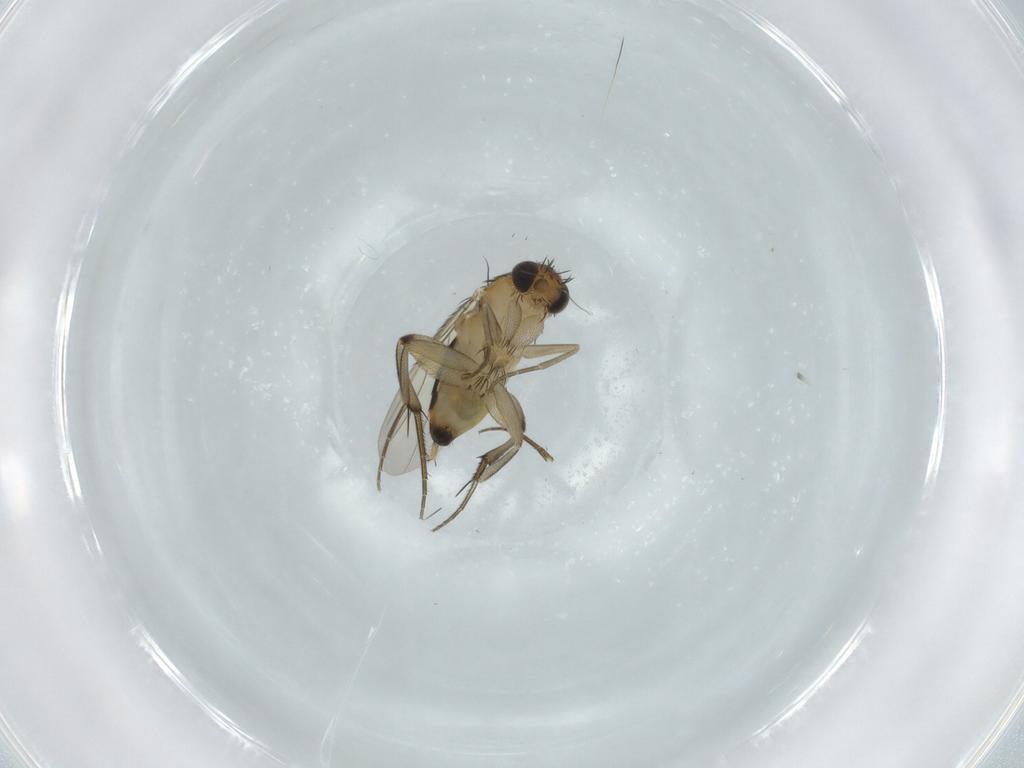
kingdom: Animalia
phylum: Arthropoda
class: Insecta
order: Diptera
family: Phoridae
